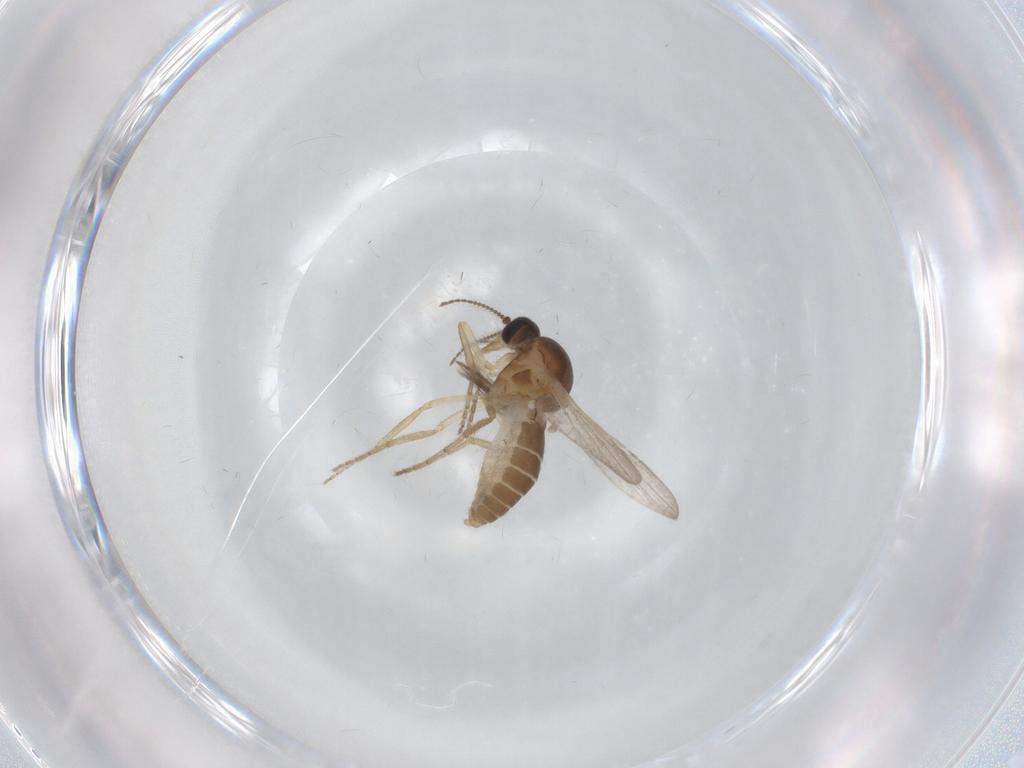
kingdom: Animalia
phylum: Arthropoda
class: Insecta
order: Diptera
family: Ceratopogonidae
